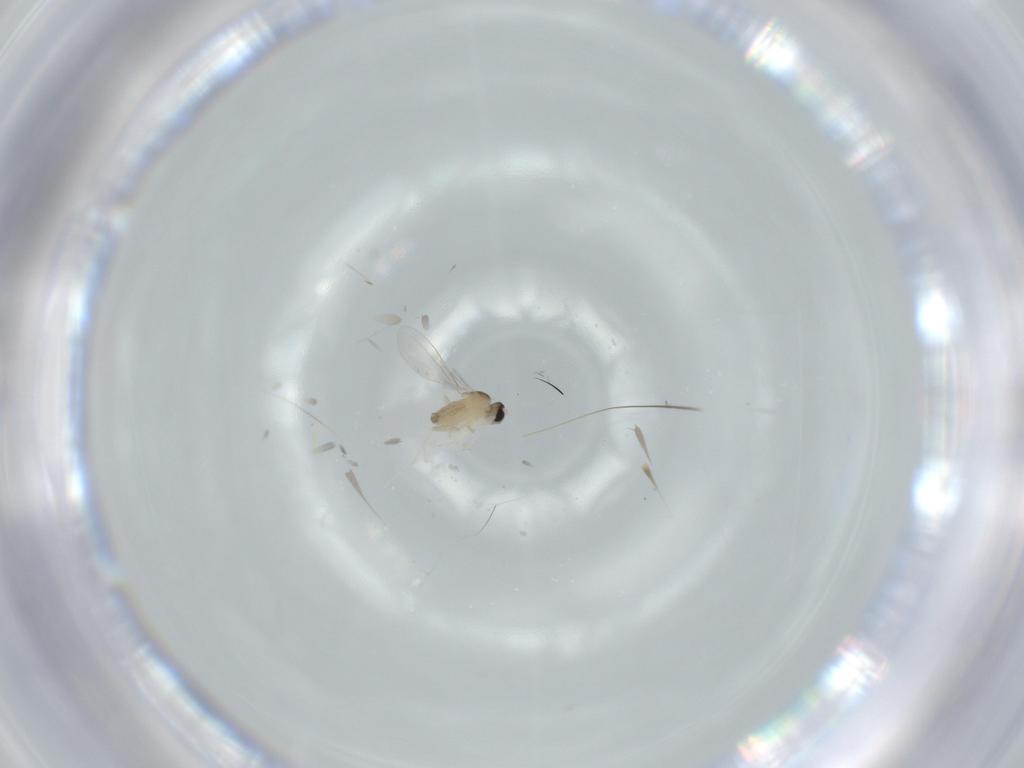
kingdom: Animalia
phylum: Arthropoda
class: Insecta
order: Diptera
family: Cecidomyiidae
